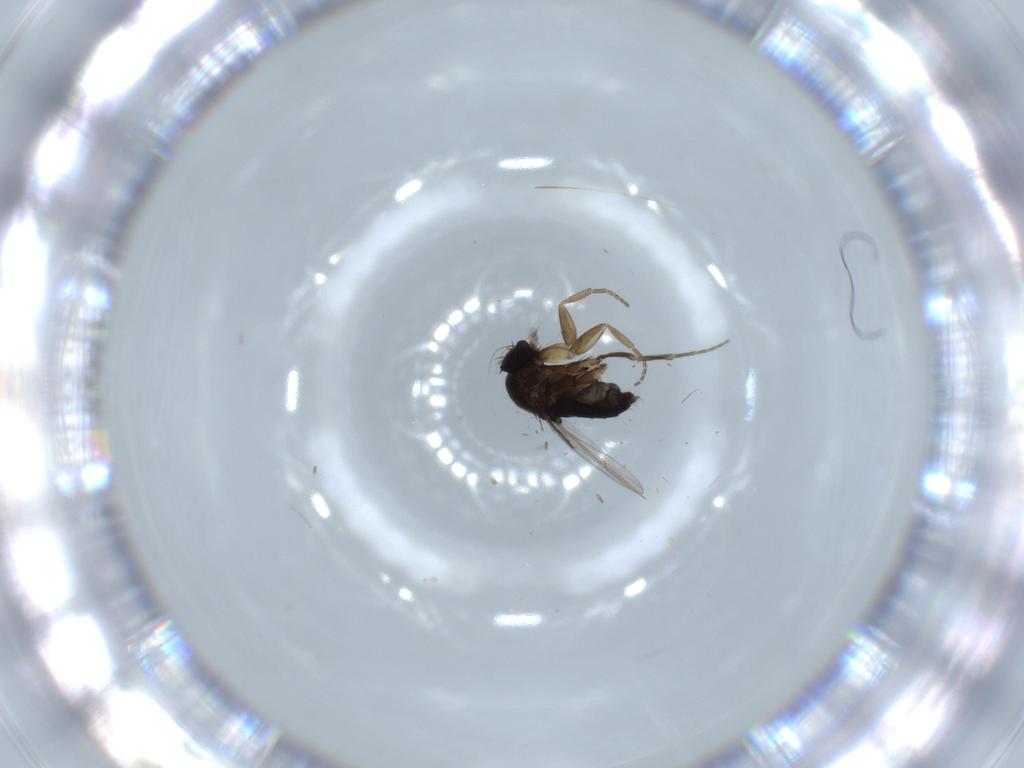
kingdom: Animalia
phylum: Arthropoda
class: Insecta
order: Diptera
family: Phoridae
